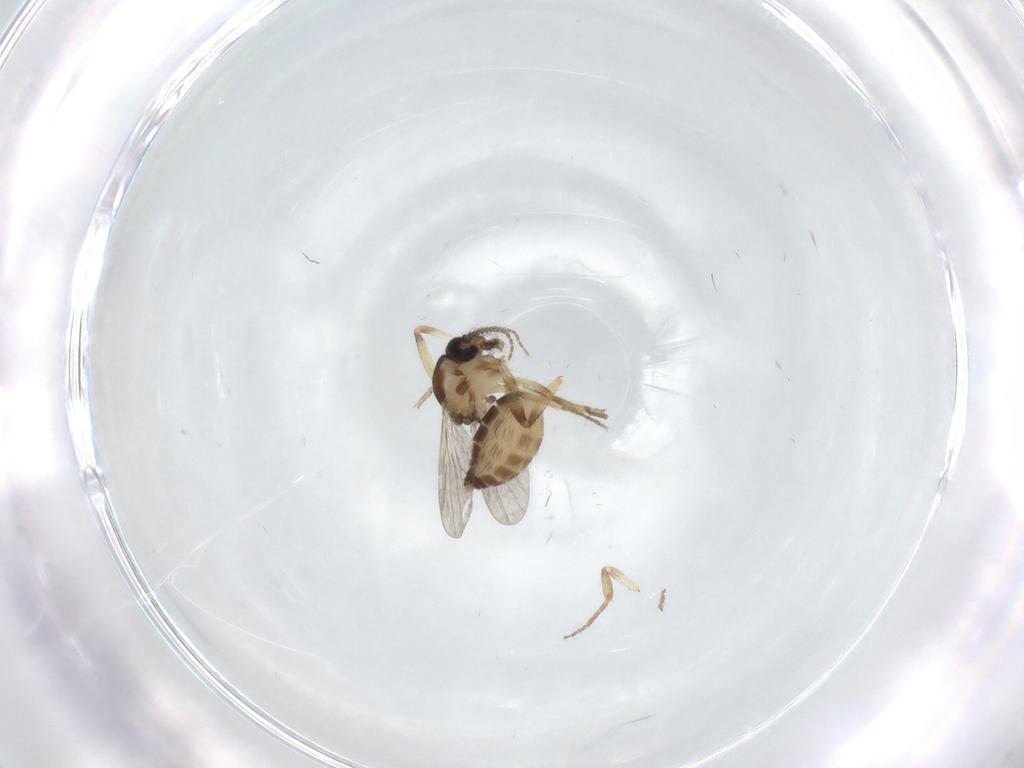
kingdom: Animalia
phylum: Arthropoda
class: Insecta
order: Diptera
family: Ceratopogonidae
